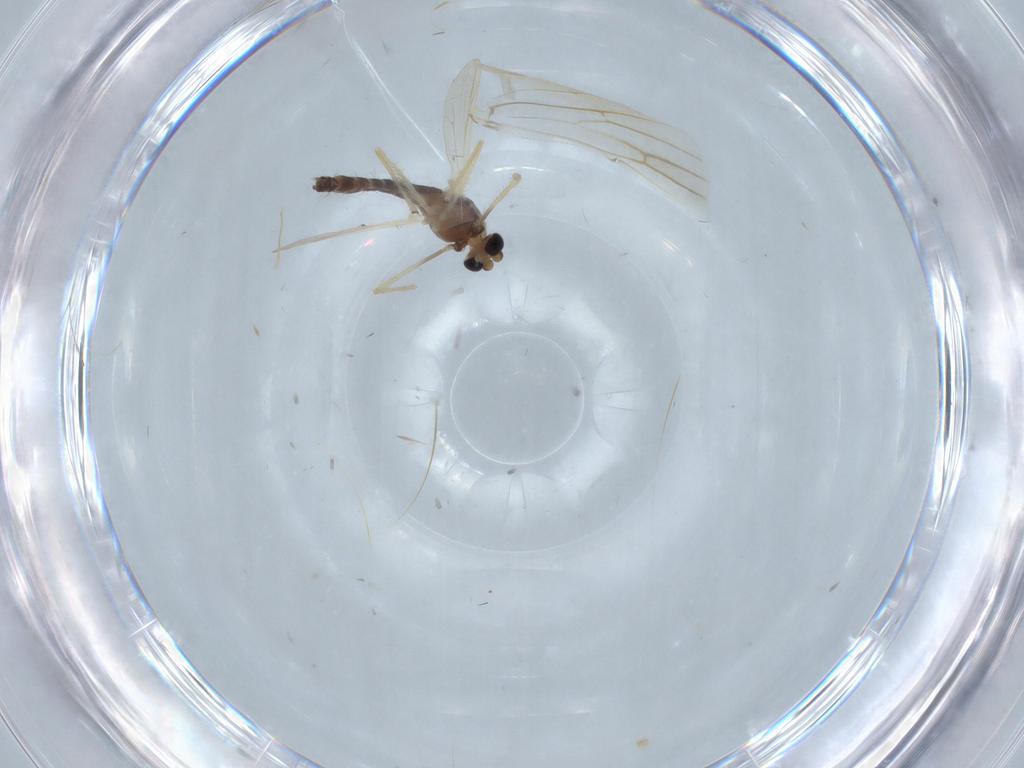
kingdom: Animalia
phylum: Arthropoda
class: Insecta
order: Diptera
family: Chironomidae
